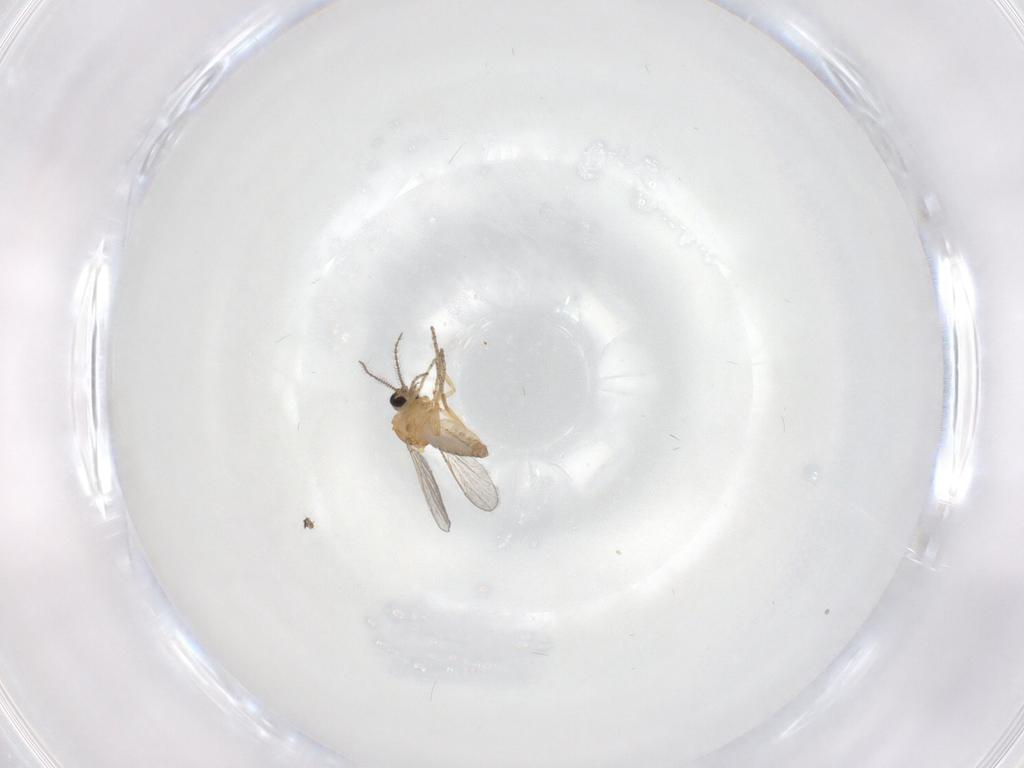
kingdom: Animalia
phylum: Arthropoda
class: Insecta
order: Diptera
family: Ceratopogonidae
